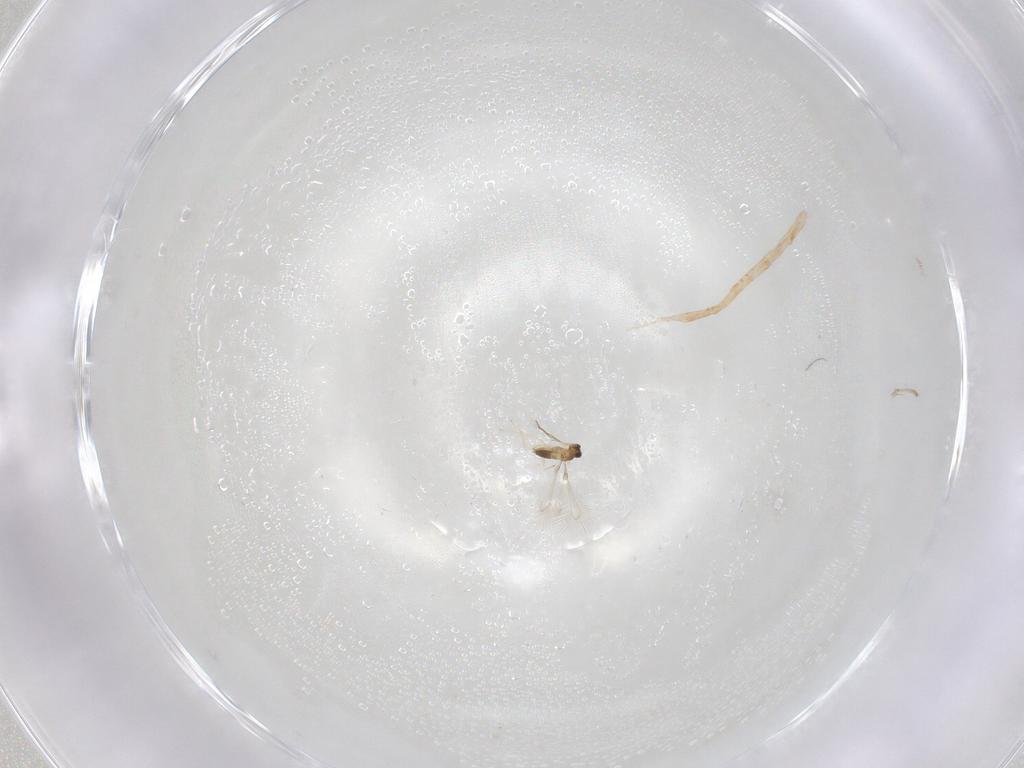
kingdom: Animalia
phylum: Arthropoda
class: Insecta
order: Hymenoptera
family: Mymaridae
